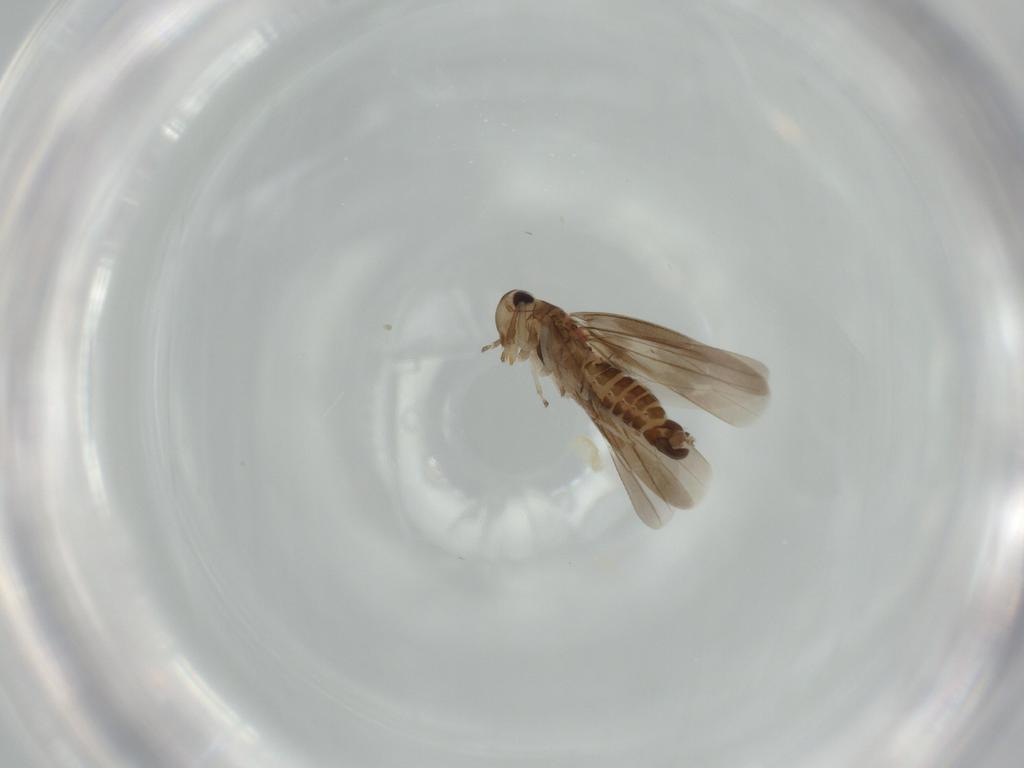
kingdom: Animalia
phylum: Arthropoda
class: Insecta
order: Hemiptera
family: Cicadellidae
